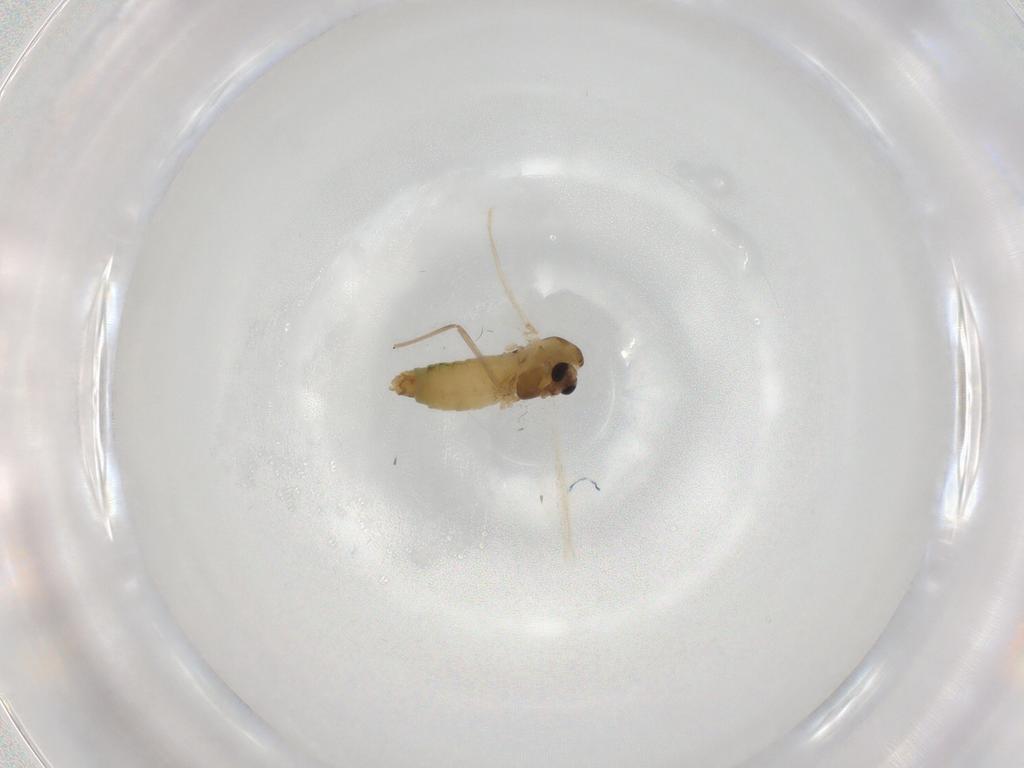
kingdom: Animalia
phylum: Arthropoda
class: Insecta
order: Diptera
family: Chironomidae
